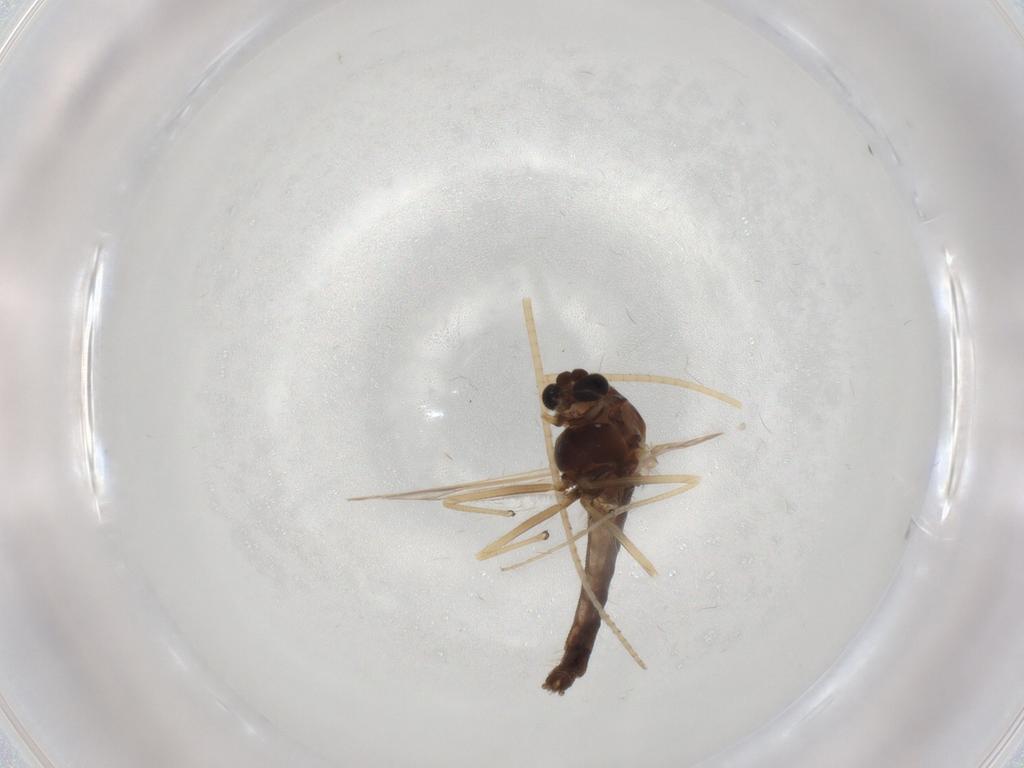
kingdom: Animalia
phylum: Arthropoda
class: Insecta
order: Diptera
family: Chironomidae
